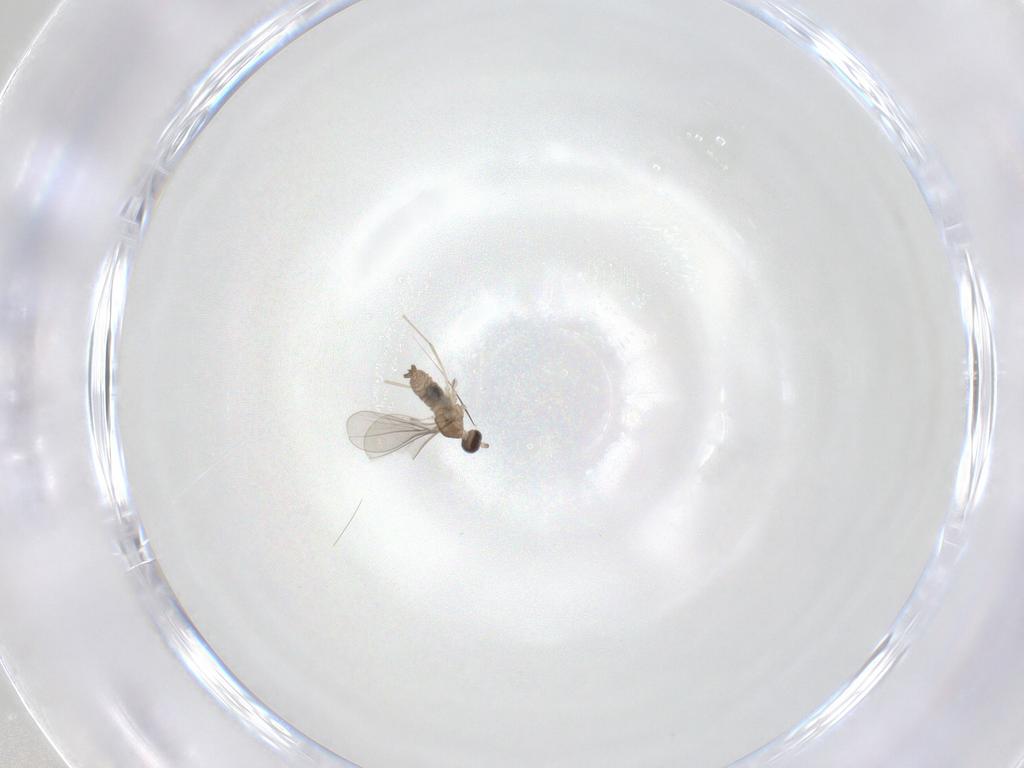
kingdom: Animalia
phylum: Arthropoda
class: Insecta
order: Diptera
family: Cecidomyiidae
